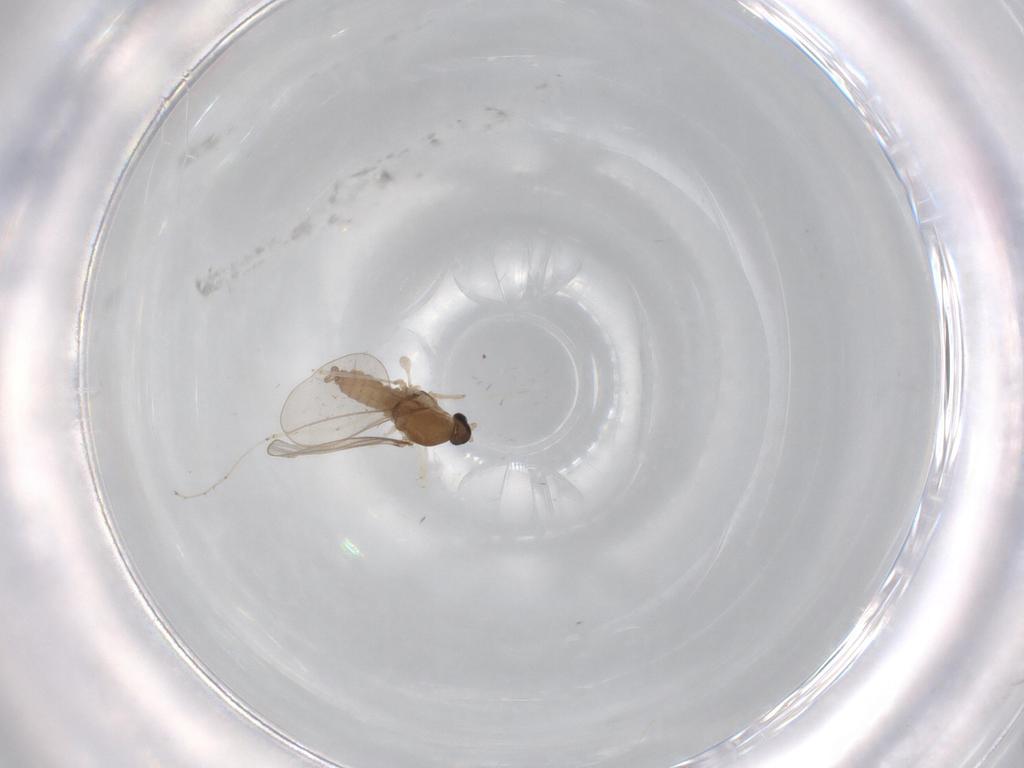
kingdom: Animalia
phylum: Arthropoda
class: Insecta
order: Diptera
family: Cecidomyiidae
